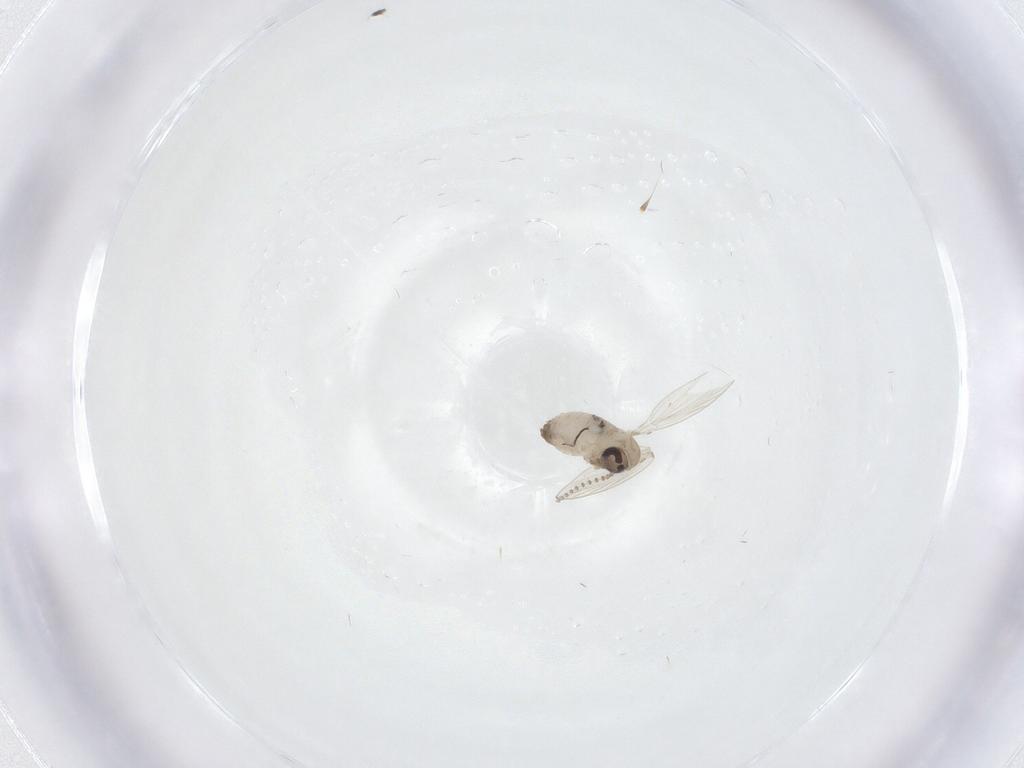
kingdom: Animalia
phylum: Arthropoda
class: Insecta
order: Diptera
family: Psychodidae
